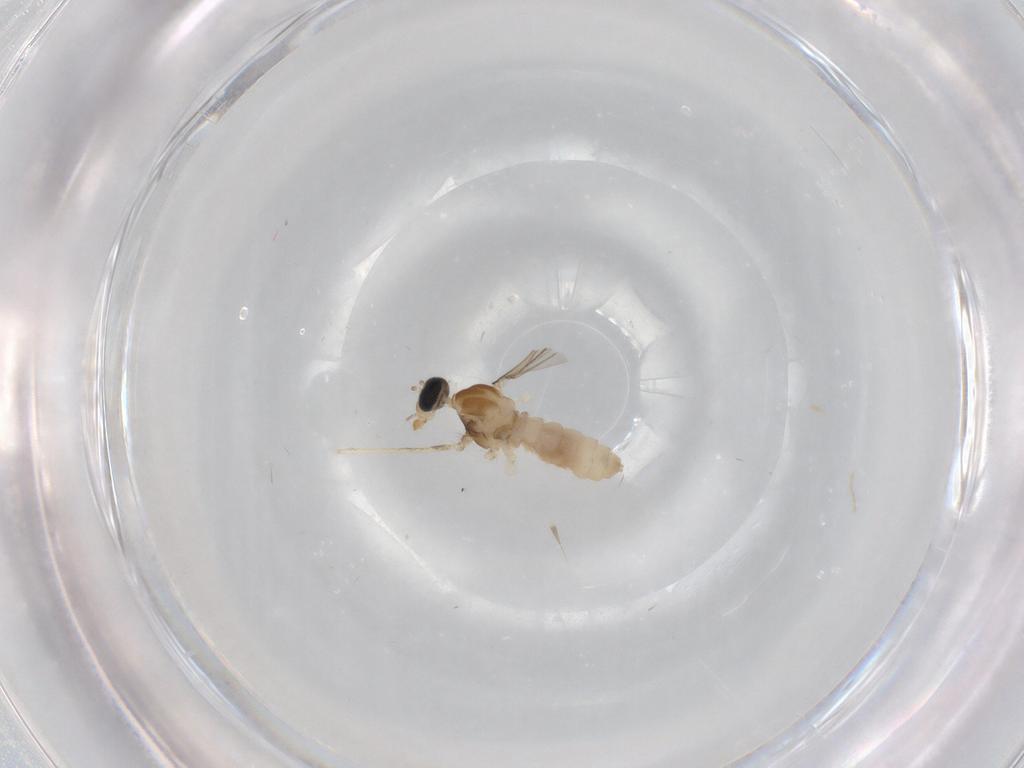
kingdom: Animalia
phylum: Arthropoda
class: Insecta
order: Diptera
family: Cecidomyiidae
